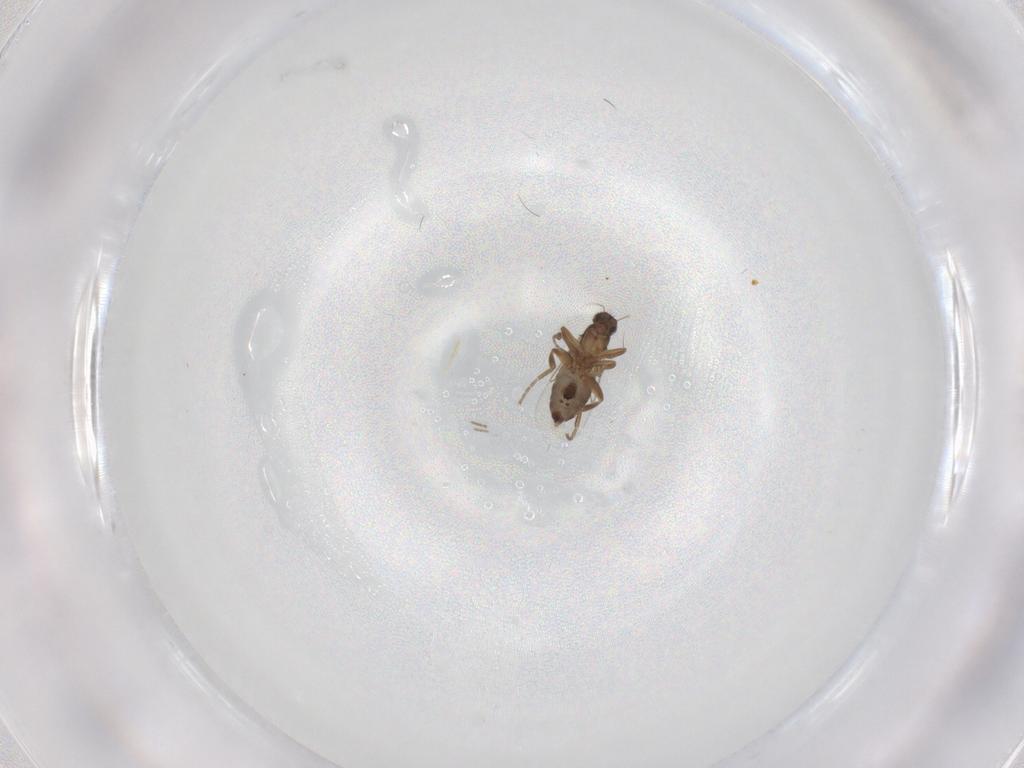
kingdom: Animalia
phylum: Arthropoda
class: Insecta
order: Diptera
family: Phoridae
